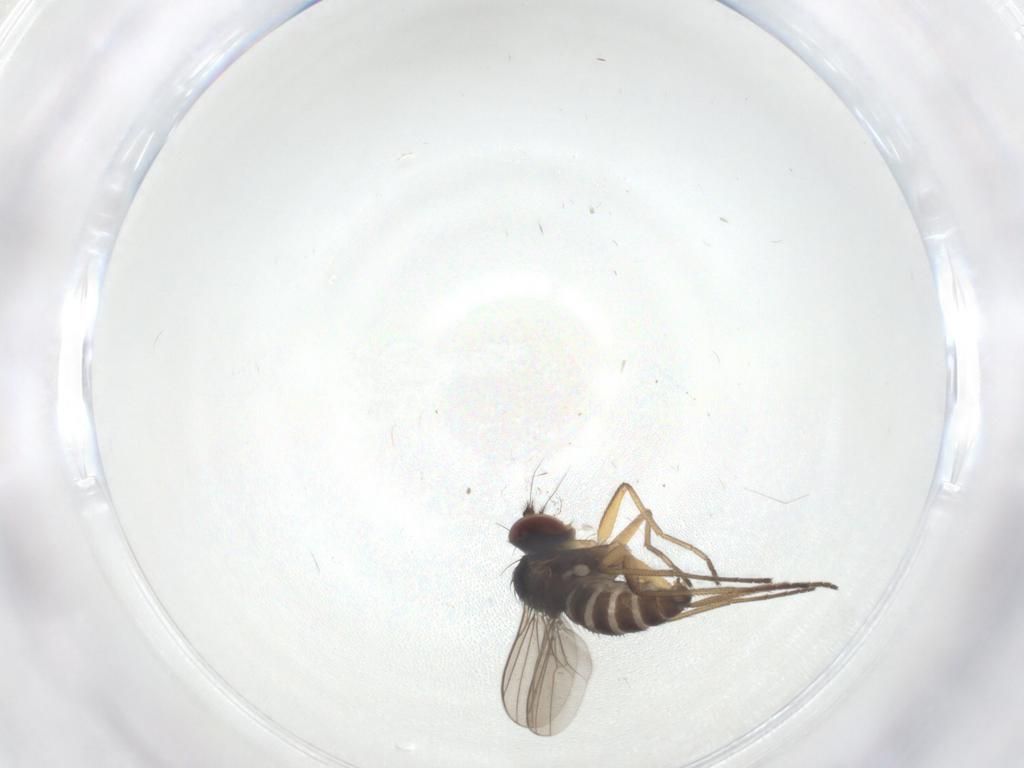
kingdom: Animalia
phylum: Arthropoda
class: Insecta
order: Diptera
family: Dolichopodidae
